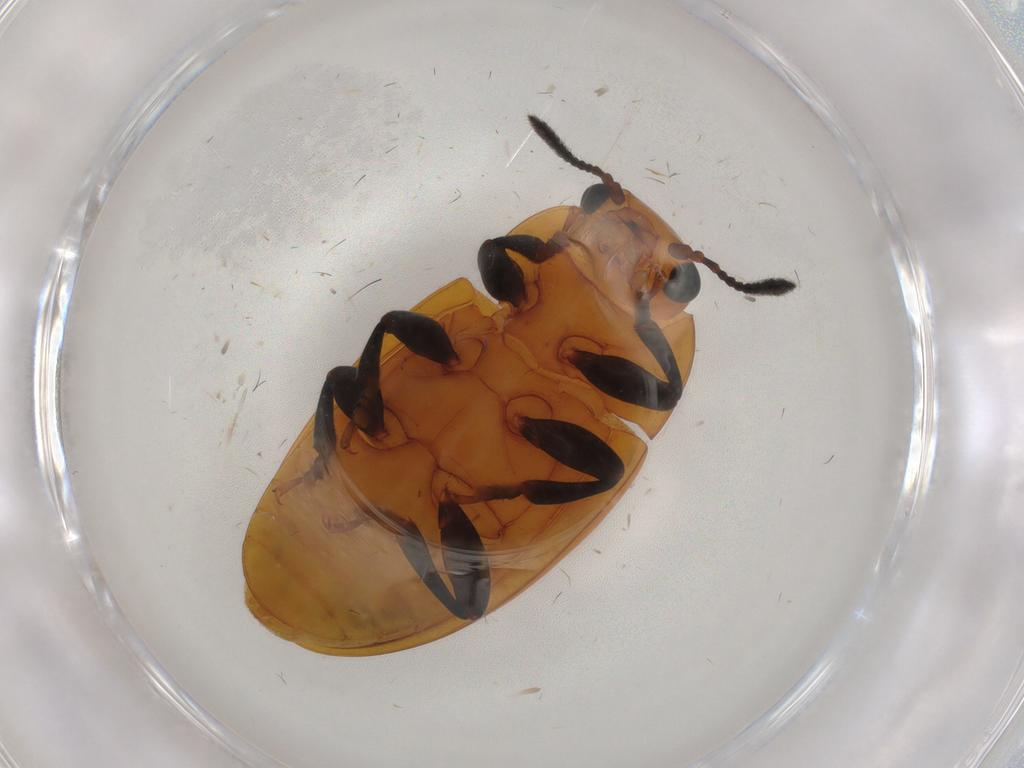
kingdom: Animalia
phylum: Arthropoda
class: Insecta
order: Coleoptera
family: Erotylidae
